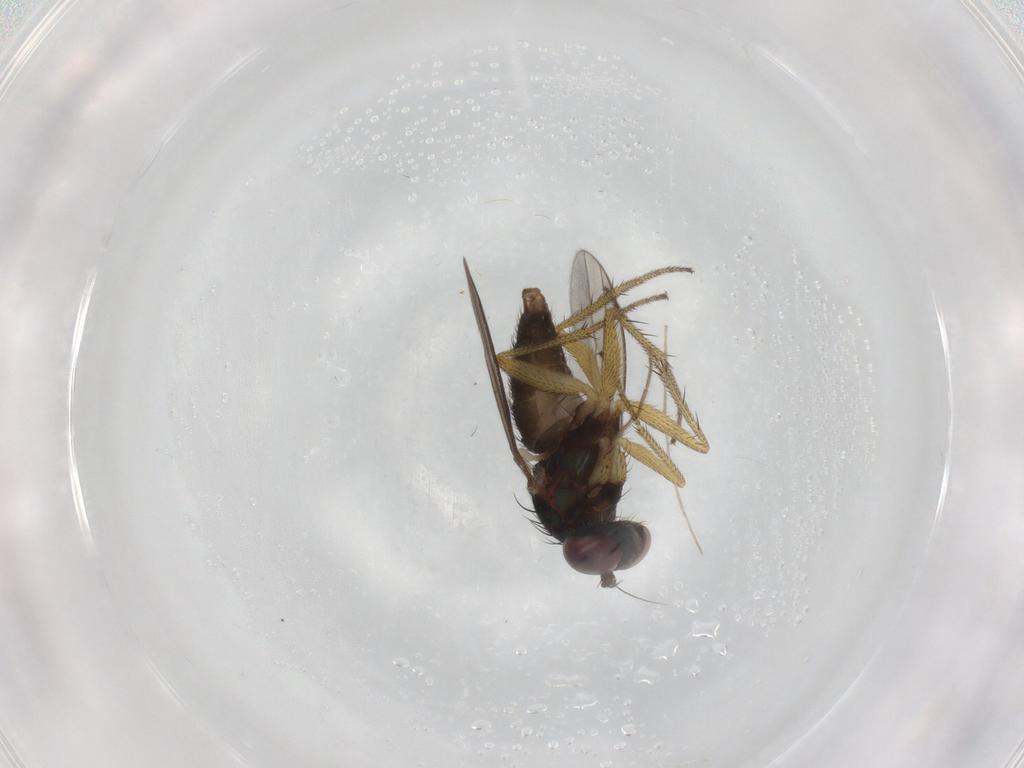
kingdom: Animalia
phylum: Arthropoda
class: Insecta
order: Diptera
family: Dolichopodidae
